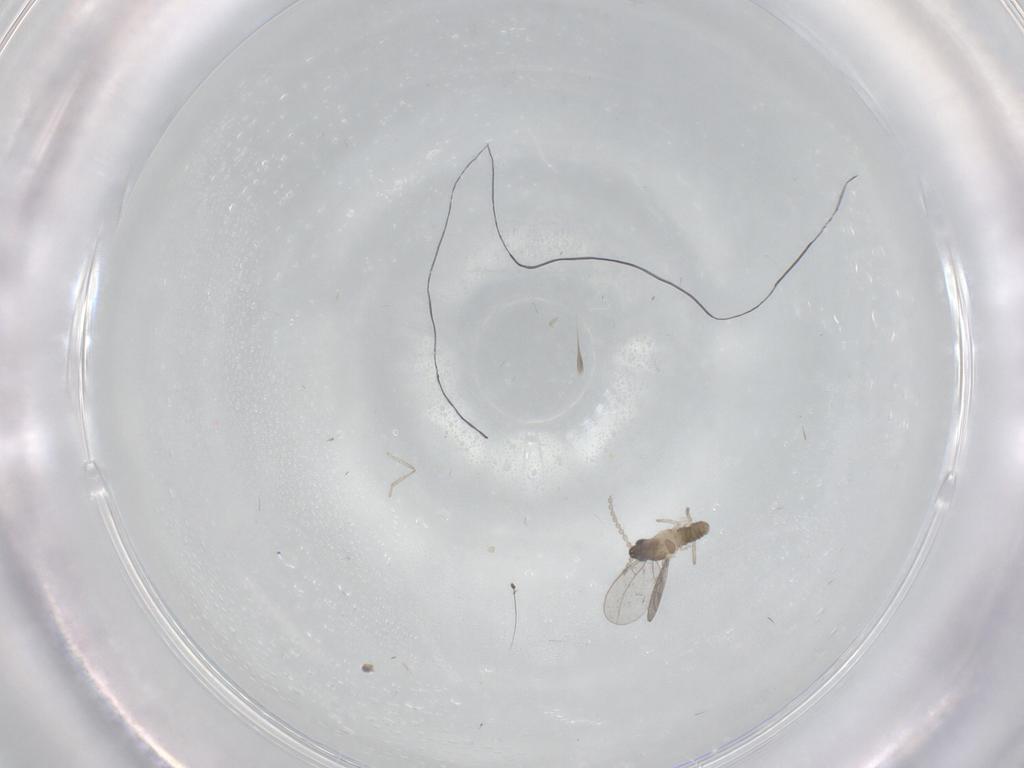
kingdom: Animalia
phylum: Arthropoda
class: Insecta
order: Diptera
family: Cecidomyiidae
